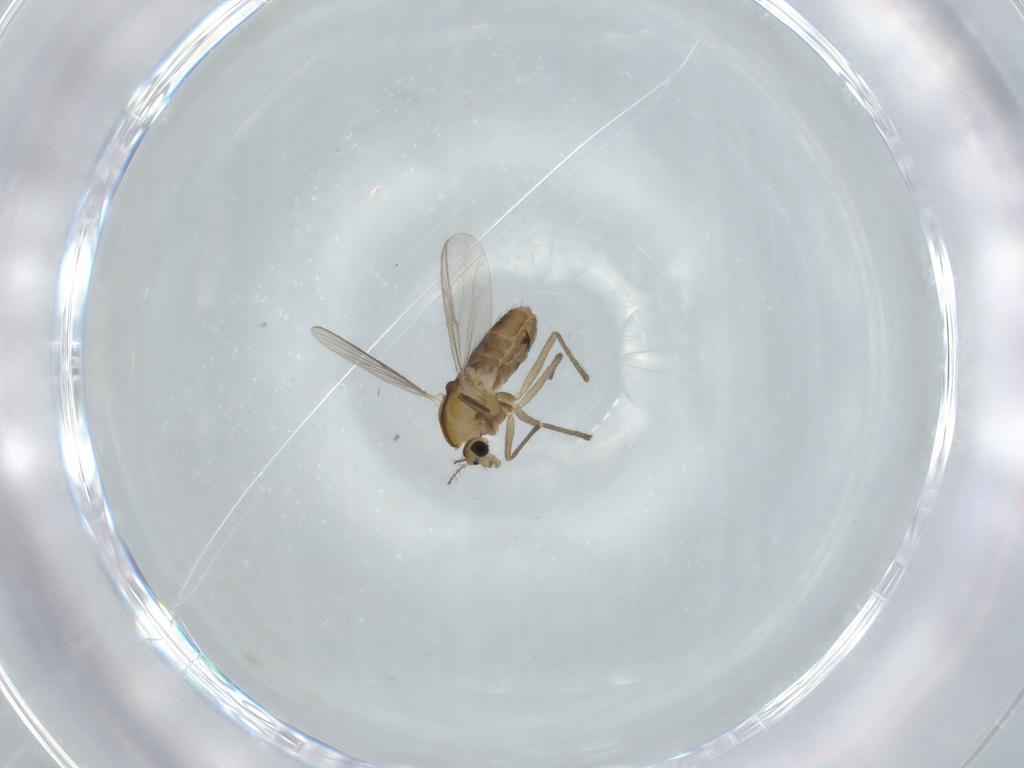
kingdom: Animalia
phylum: Arthropoda
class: Insecta
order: Diptera
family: Chironomidae
